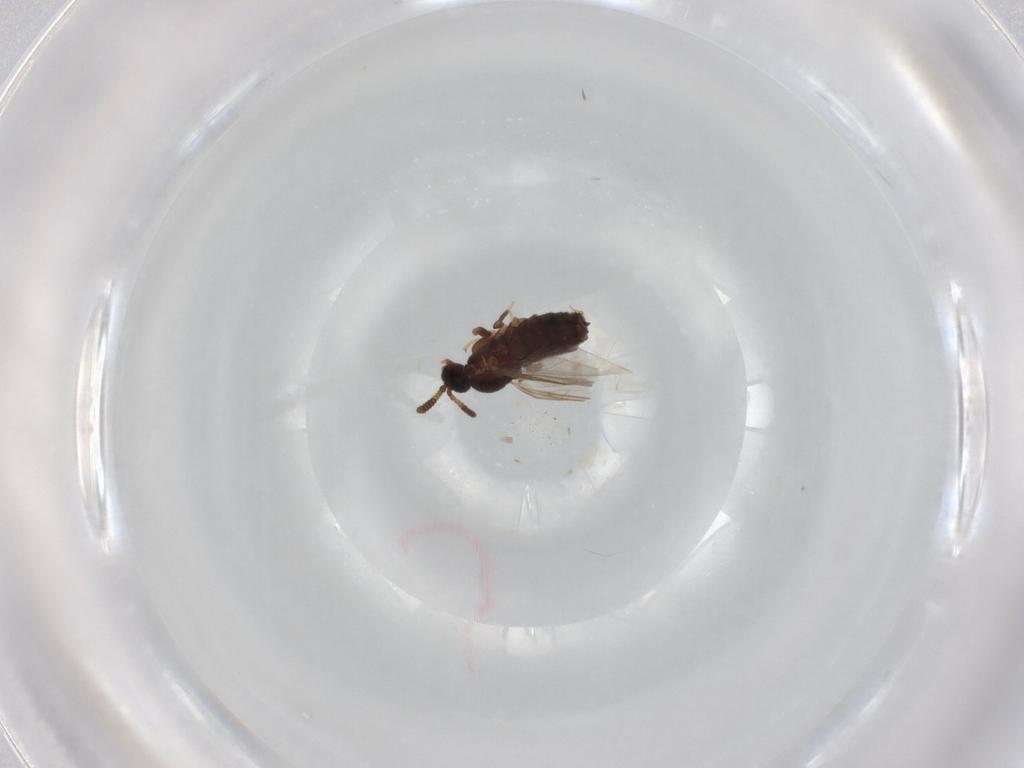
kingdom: Animalia
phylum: Arthropoda
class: Insecta
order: Diptera
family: Hybotidae
